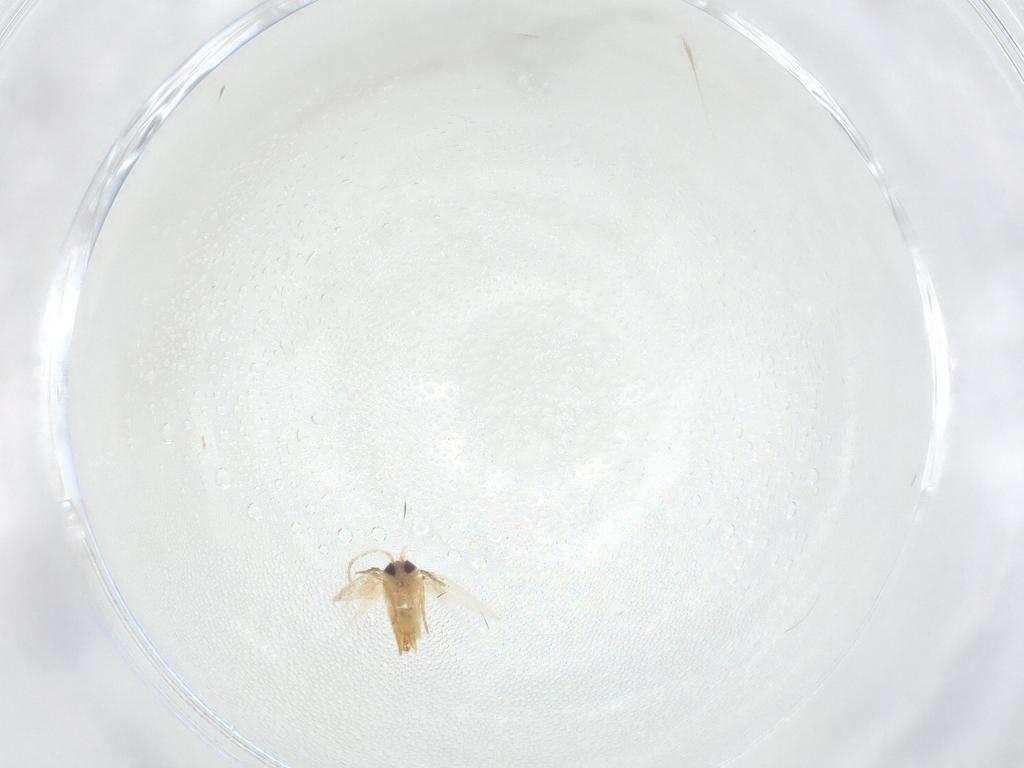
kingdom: Animalia
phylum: Arthropoda
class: Insecta
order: Lepidoptera
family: Crambidae
